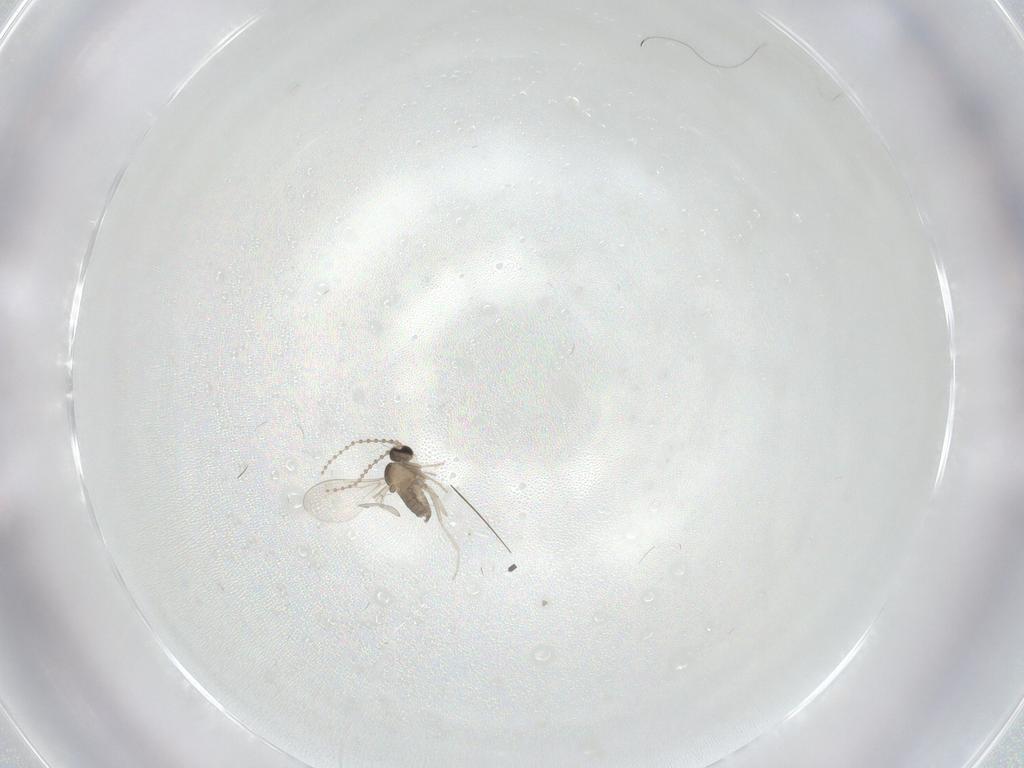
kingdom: Animalia
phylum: Arthropoda
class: Insecta
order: Diptera
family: Cecidomyiidae
